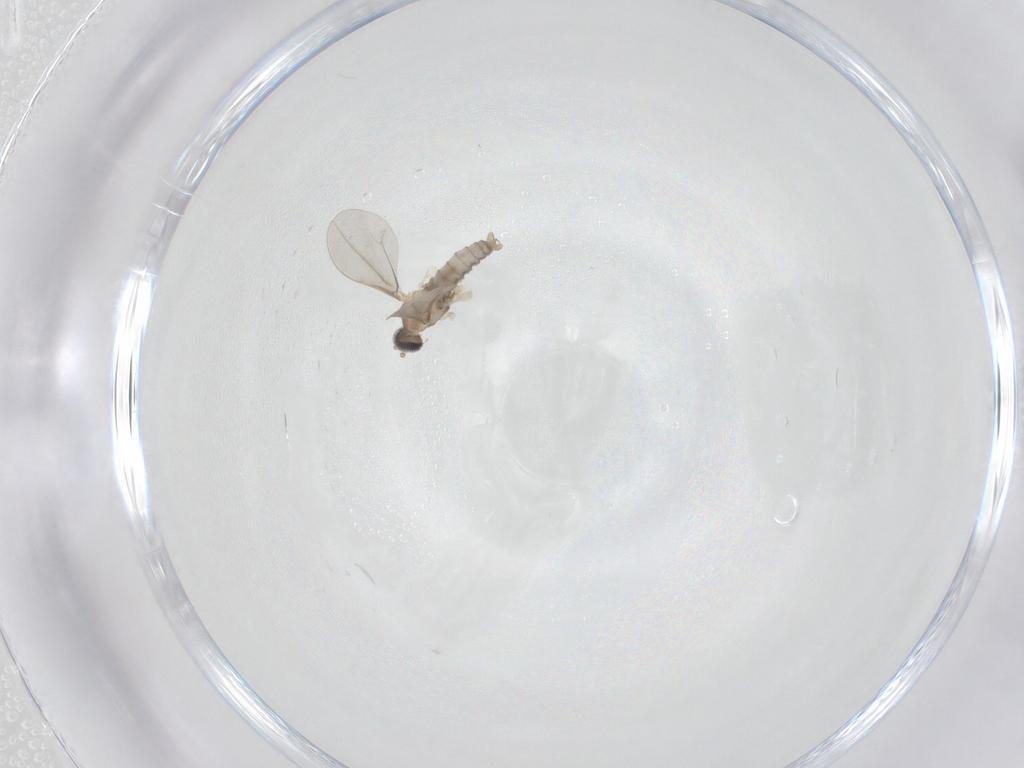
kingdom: Animalia
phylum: Arthropoda
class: Insecta
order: Diptera
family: Cecidomyiidae
